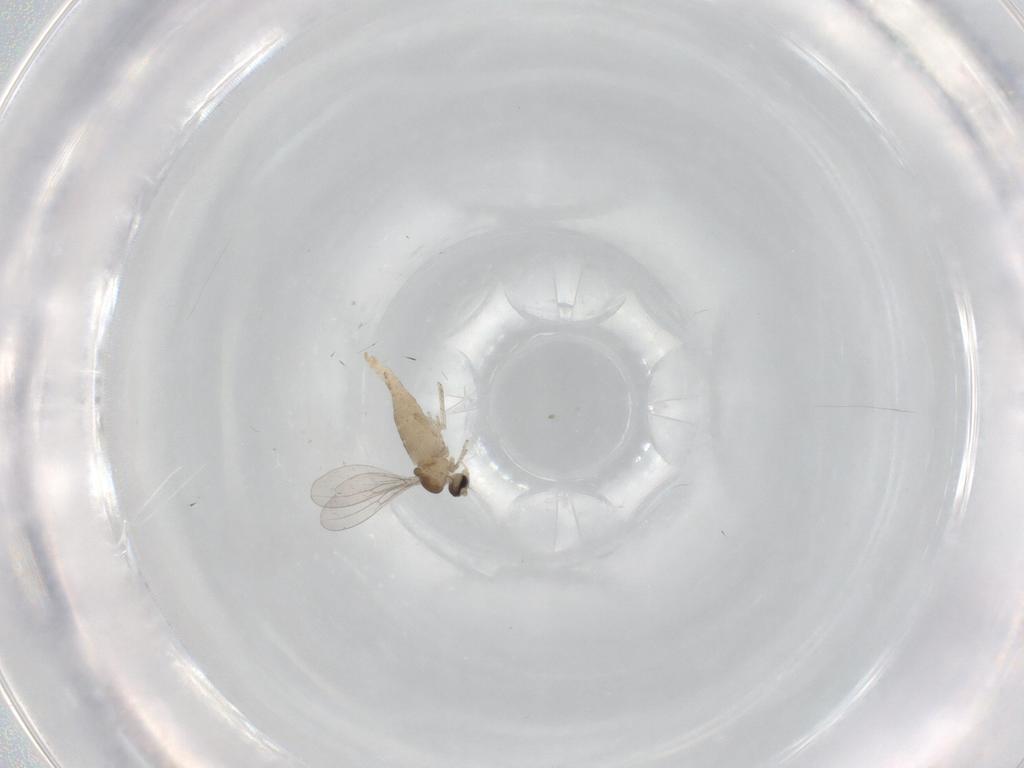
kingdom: Animalia
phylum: Arthropoda
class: Insecta
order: Diptera
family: Cecidomyiidae
